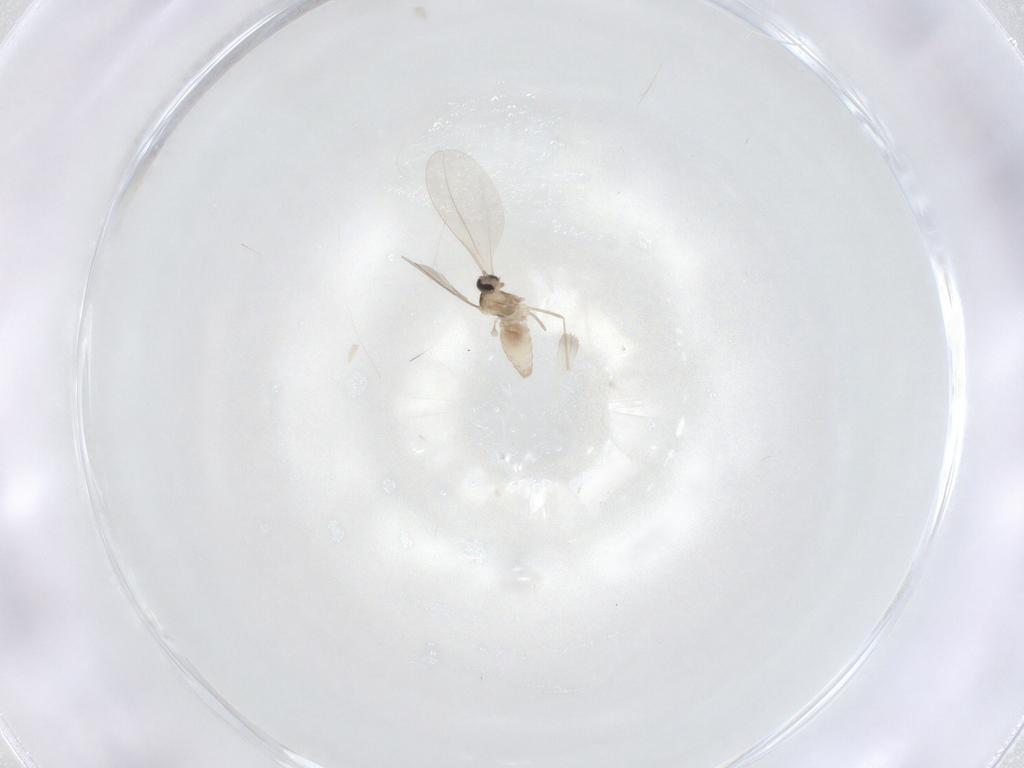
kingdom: Animalia
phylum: Arthropoda
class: Insecta
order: Diptera
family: Cecidomyiidae
